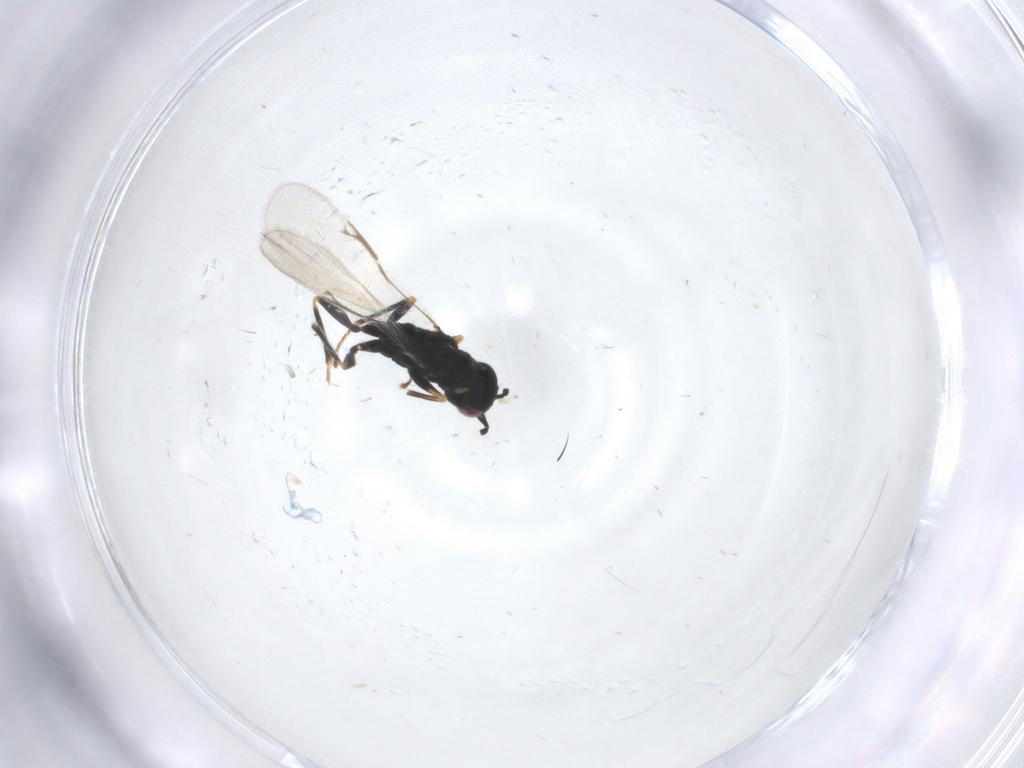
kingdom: Animalia
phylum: Arthropoda
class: Insecta
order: Hymenoptera
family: Eurytomidae
